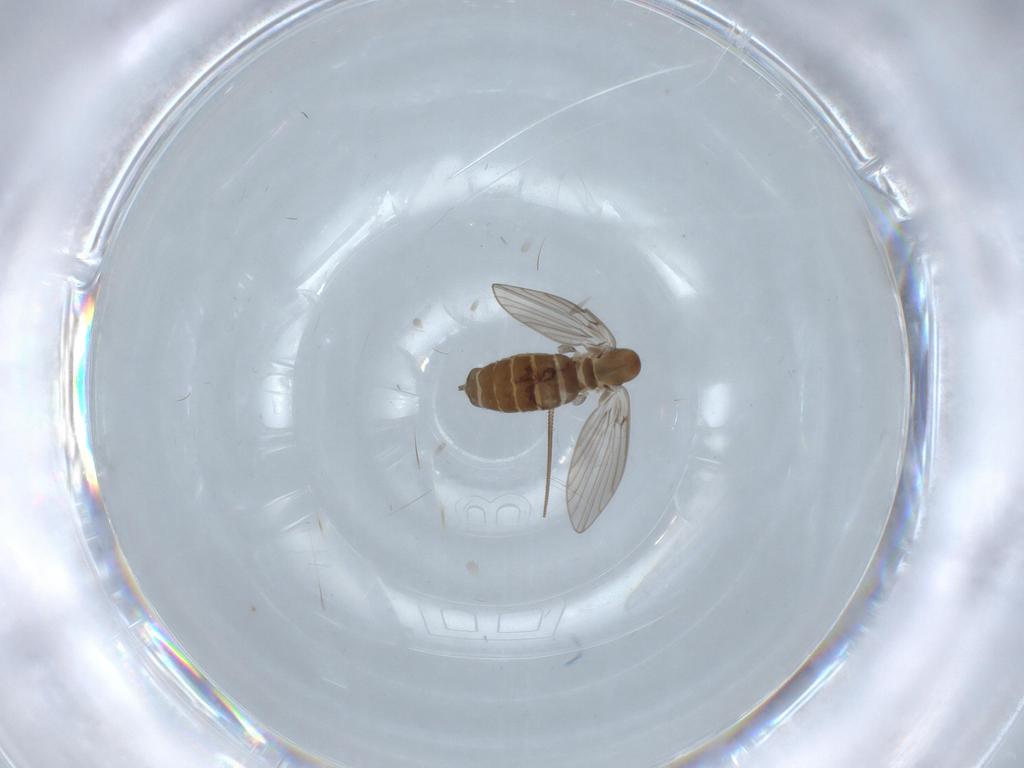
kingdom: Animalia
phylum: Arthropoda
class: Insecta
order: Diptera
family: Psychodidae
